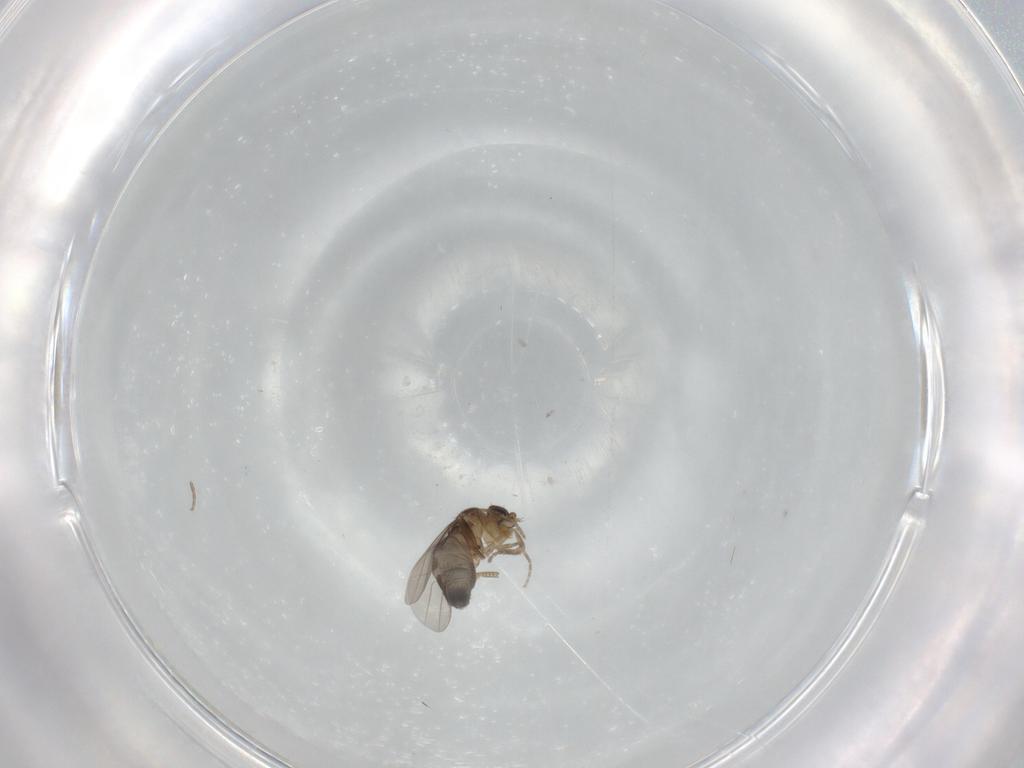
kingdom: Animalia
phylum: Arthropoda
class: Insecta
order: Diptera
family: Phoridae
